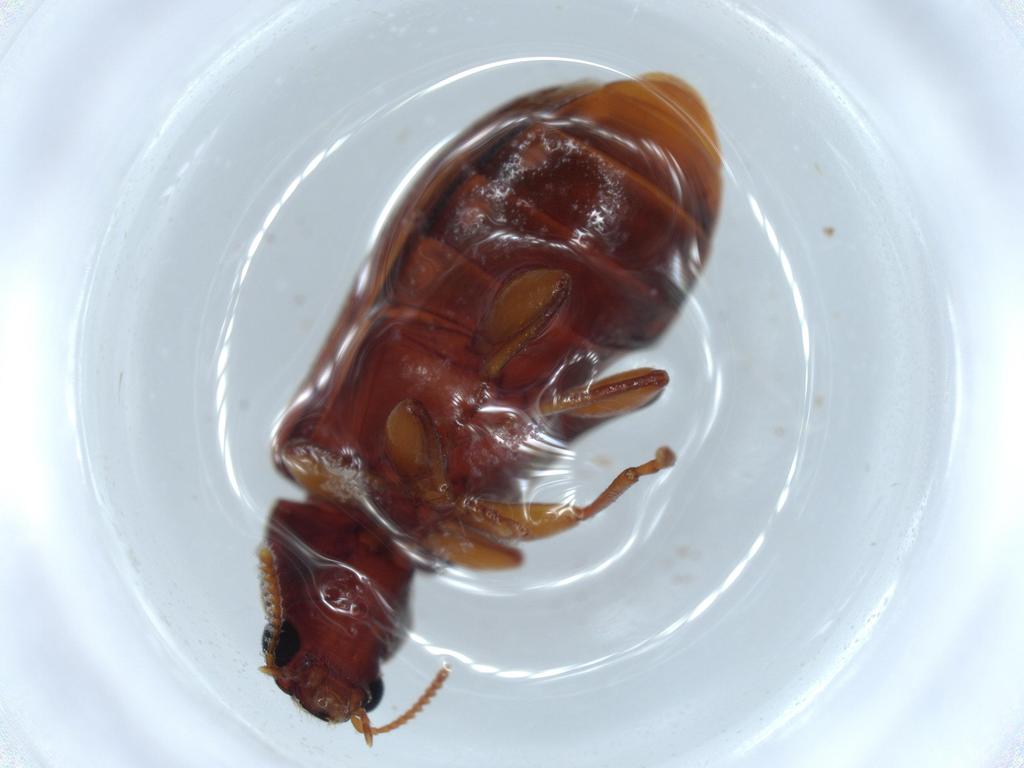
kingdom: Animalia
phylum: Arthropoda
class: Insecta
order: Coleoptera
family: Mycteridae
